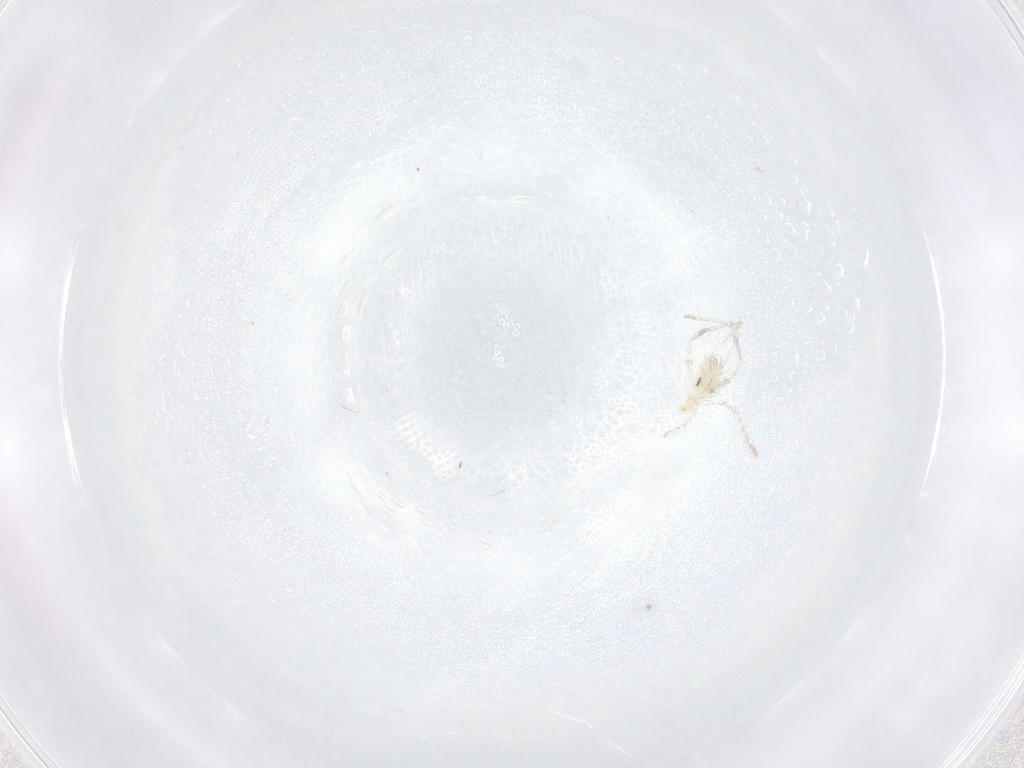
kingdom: Animalia
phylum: Arthropoda
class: Arachnida
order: Trombidiformes
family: Erythraeidae
